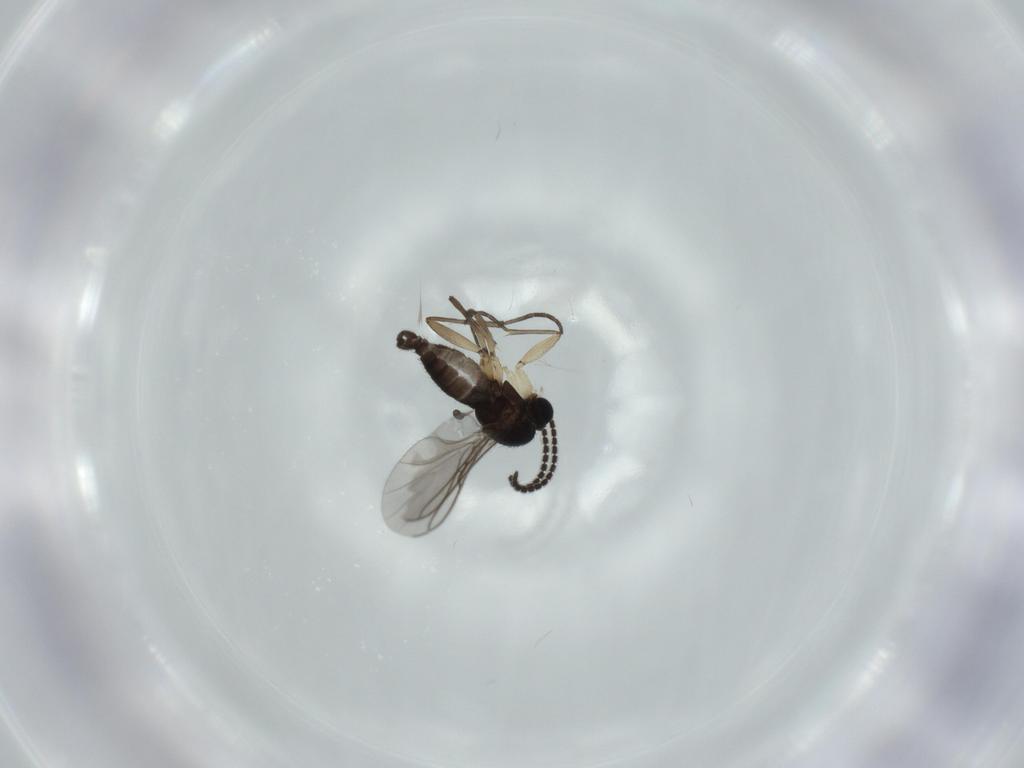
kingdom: Animalia
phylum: Arthropoda
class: Insecta
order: Diptera
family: Sciaridae
